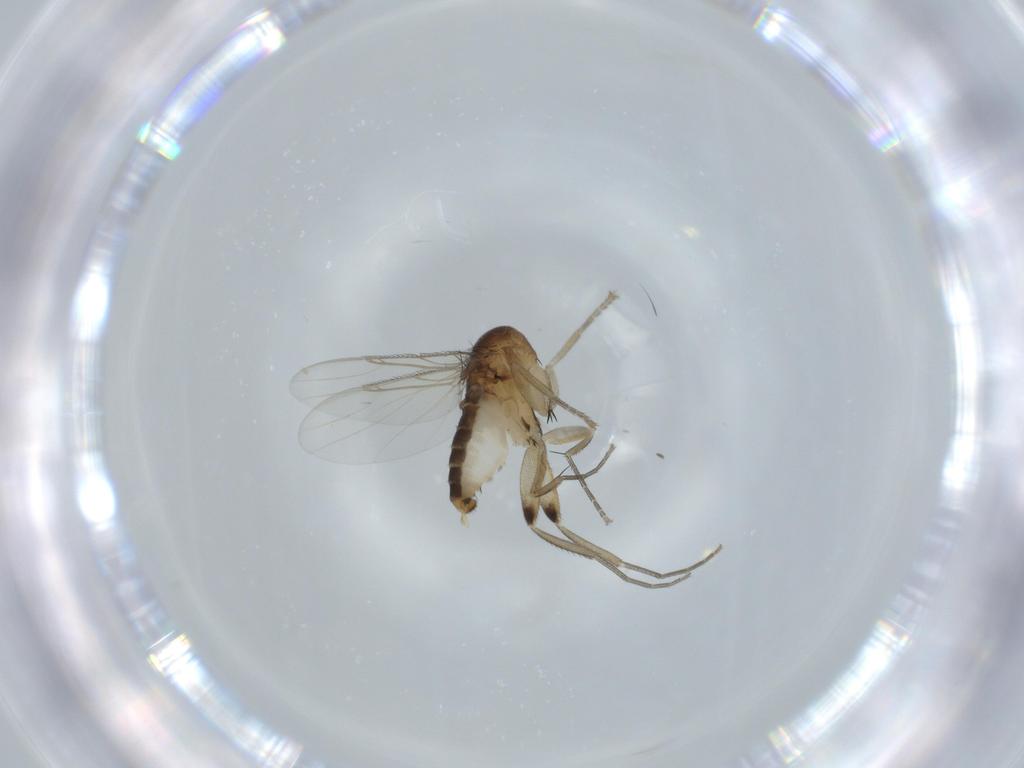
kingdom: Animalia
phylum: Arthropoda
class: Insecta
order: Diptera
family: Phoridae
